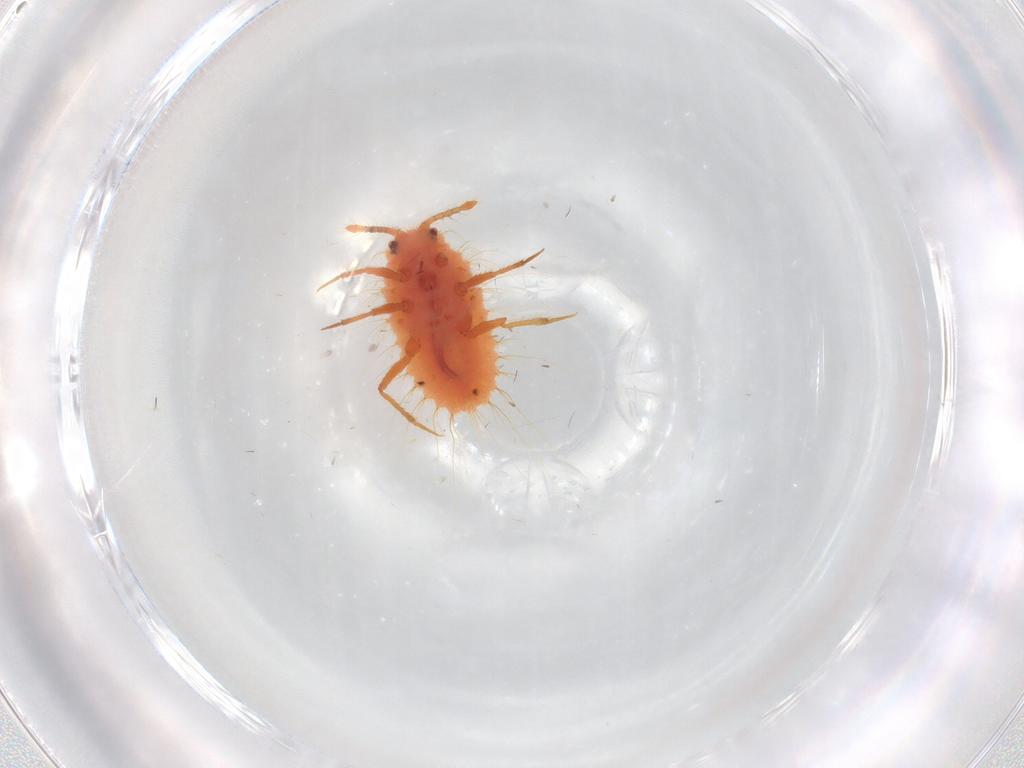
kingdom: Animalia
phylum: Arthropoda
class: Insecta
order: Hemiptera
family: Coccoidea_incertae_sedis
